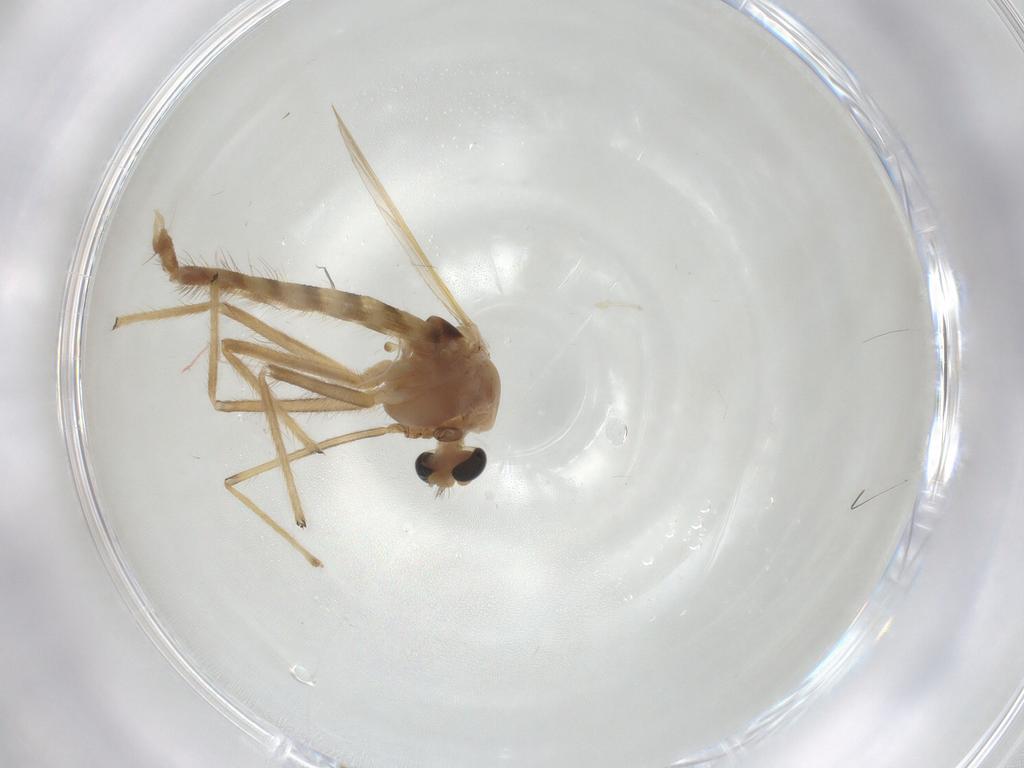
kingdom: Animalia
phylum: Arthropoda
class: Insecta
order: Diptera
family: Chironomidae
